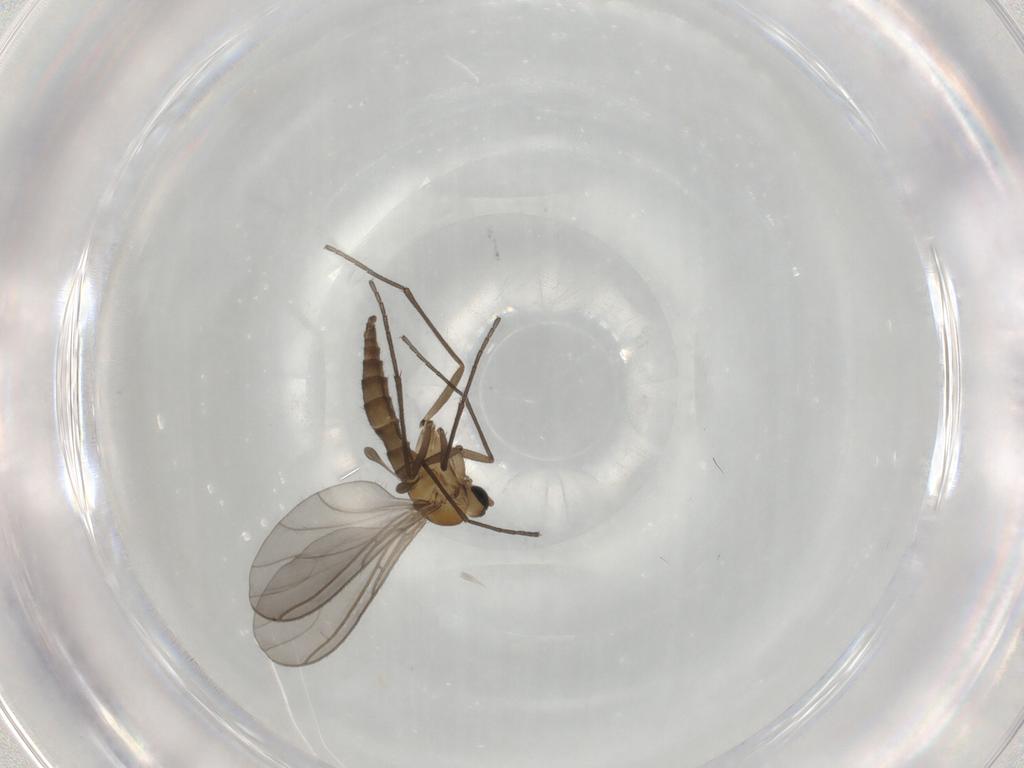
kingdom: Animalia
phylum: Arthropoda
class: Insecta
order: Diptera
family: Sciaridae
